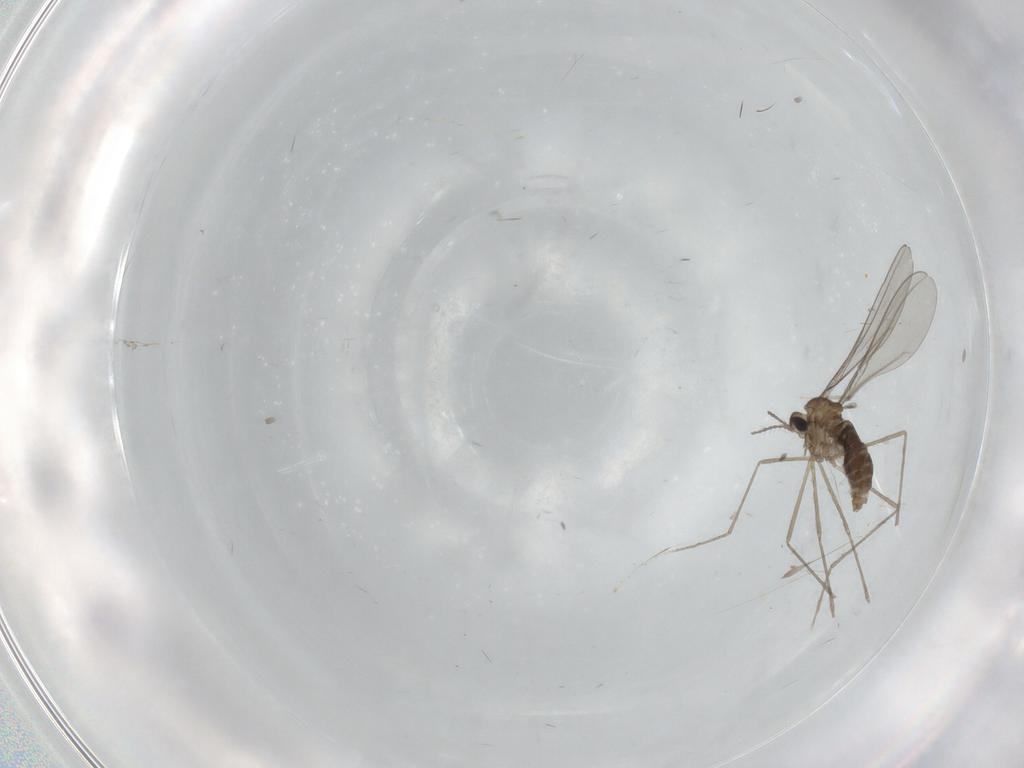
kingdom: Animalia
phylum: Arthropoda
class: Insecta
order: Diptera
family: Cecidomyiidae
